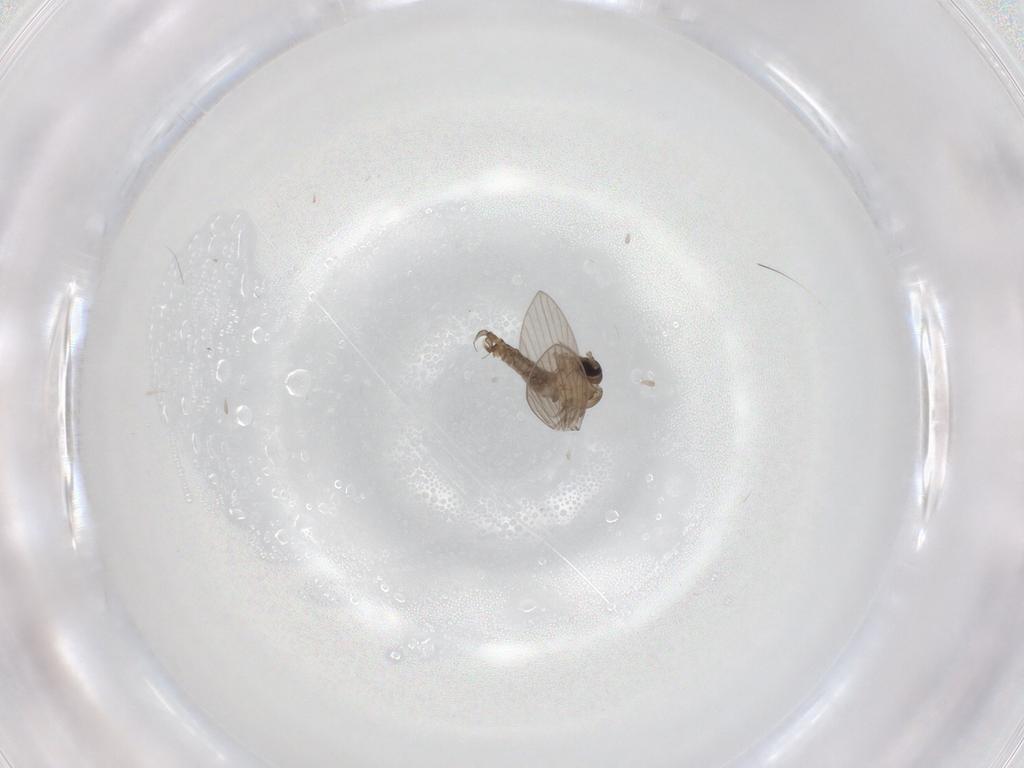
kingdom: Animalia
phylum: Arthropoda
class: Insecta
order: Diptera
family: Psychodidae
